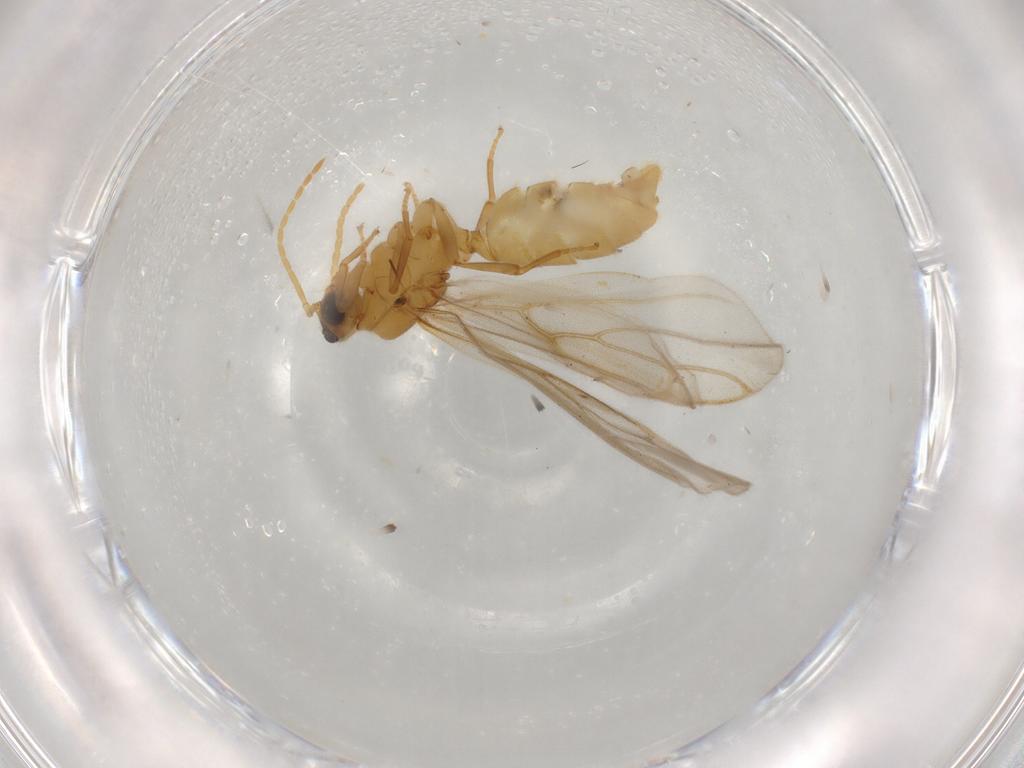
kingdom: Animalia
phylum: Arthropoda
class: Insecta
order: Hymenoptera
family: Formicidae
